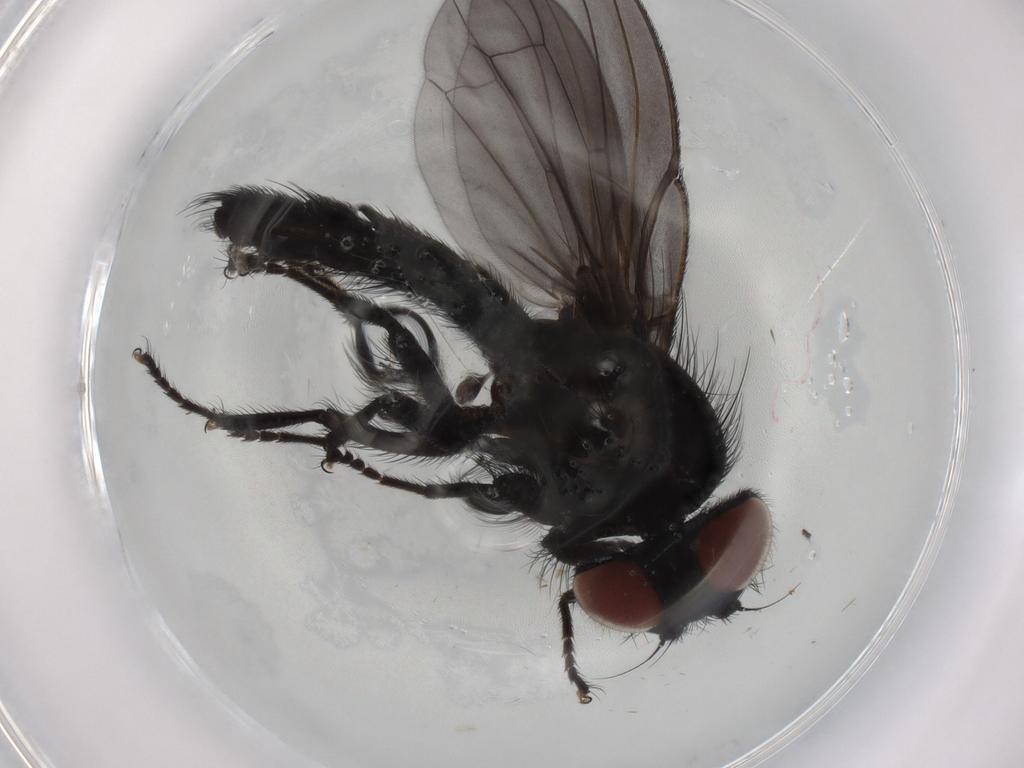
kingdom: Animalia
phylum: Arthropoda
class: Insecta
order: Diptera
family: Lonchaeidae
